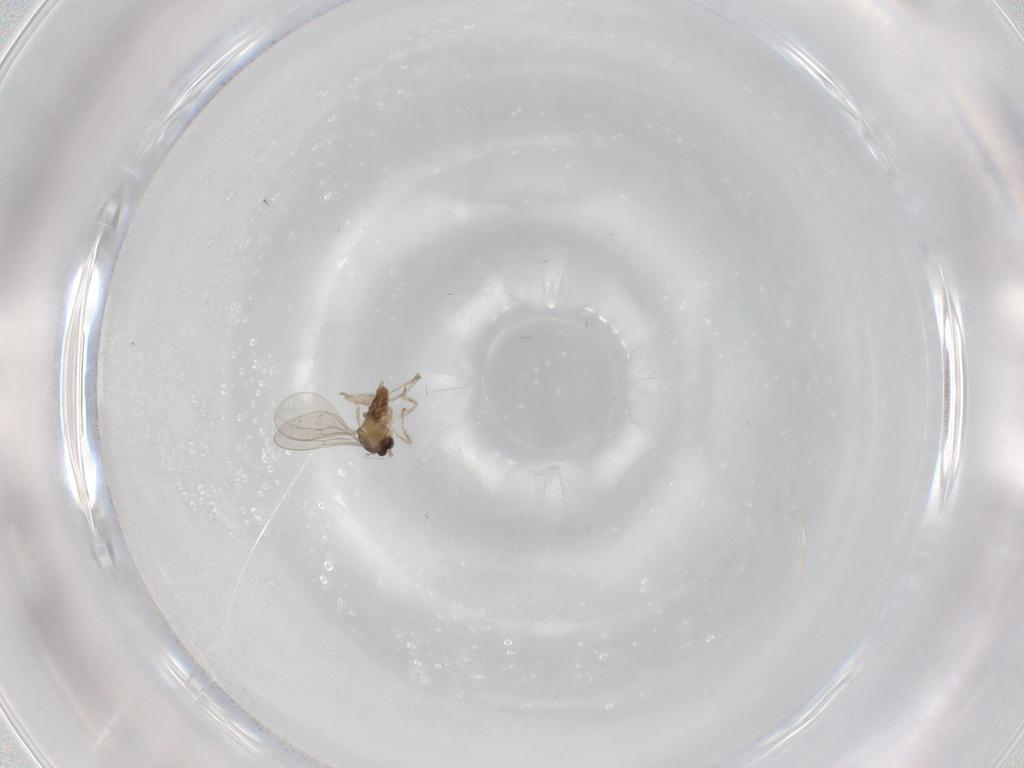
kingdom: Animalia
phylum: Arthropoda
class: Insecta
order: Diptera
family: Cecidomyiidae
